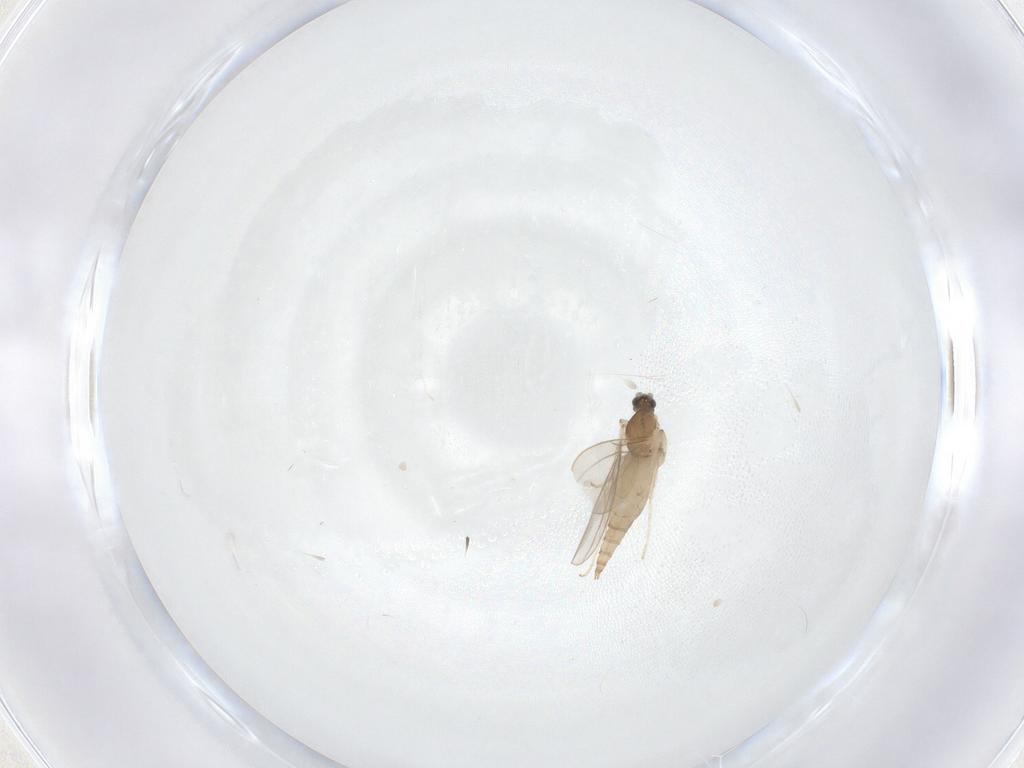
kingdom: Animalia
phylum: Arthropoda
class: Insecta
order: Diptera
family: Cecidomyiidae
